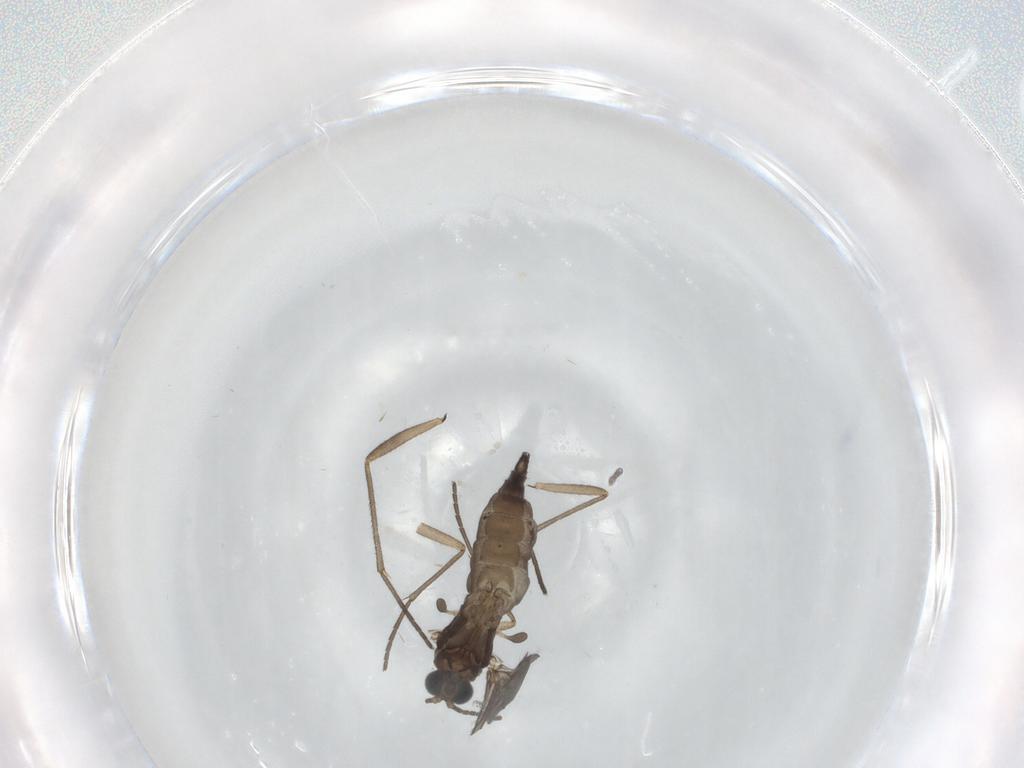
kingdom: Animalia
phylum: Arthropoda
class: Insecta
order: Diptera
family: Sciaridae
